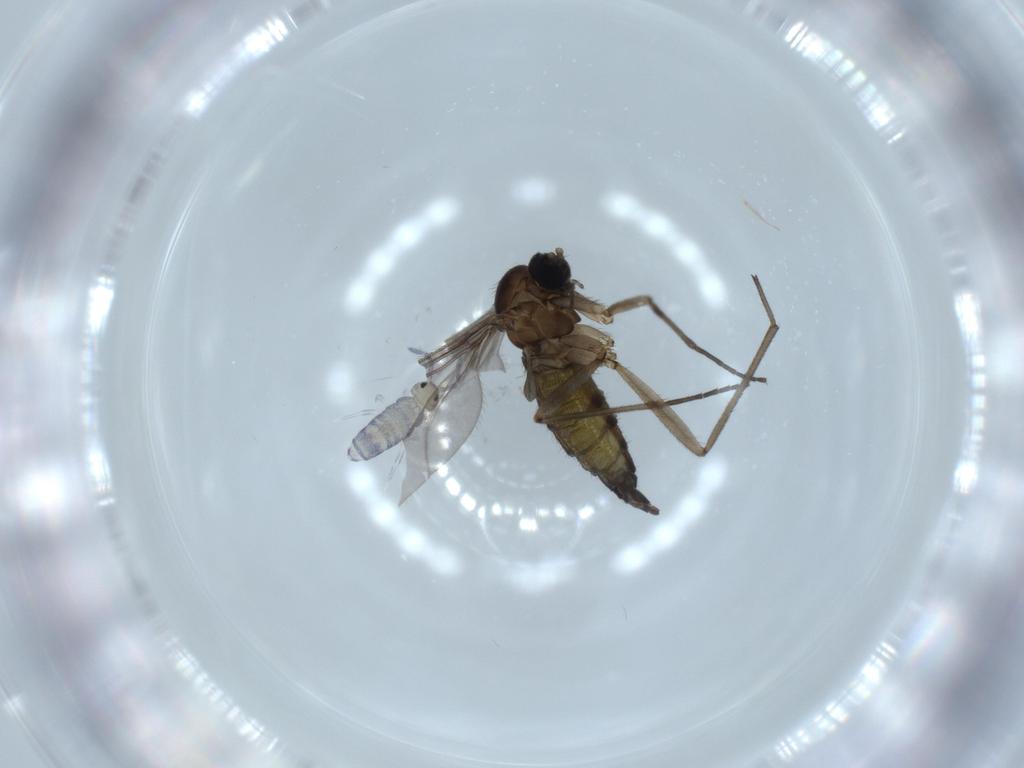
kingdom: Animalia
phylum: Arthropoda
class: Insecta
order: Diptera
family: Sciaridae
